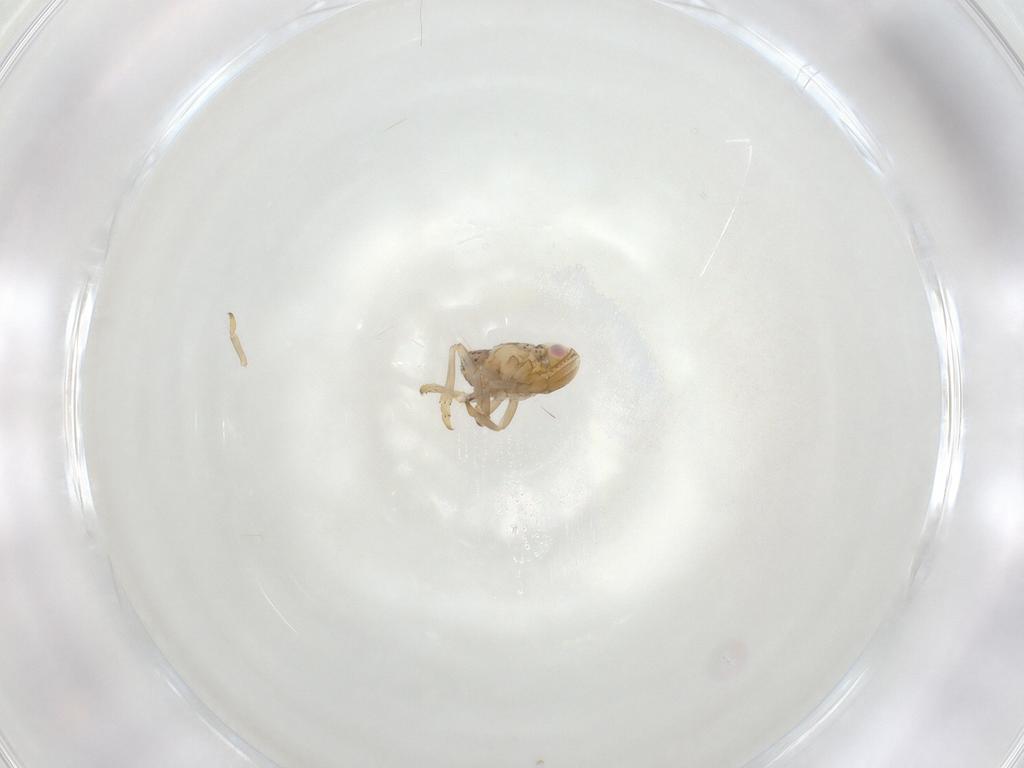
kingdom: Animalia
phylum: Arthropoda
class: Insecta
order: Hemiptera
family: Tropiduchidae
